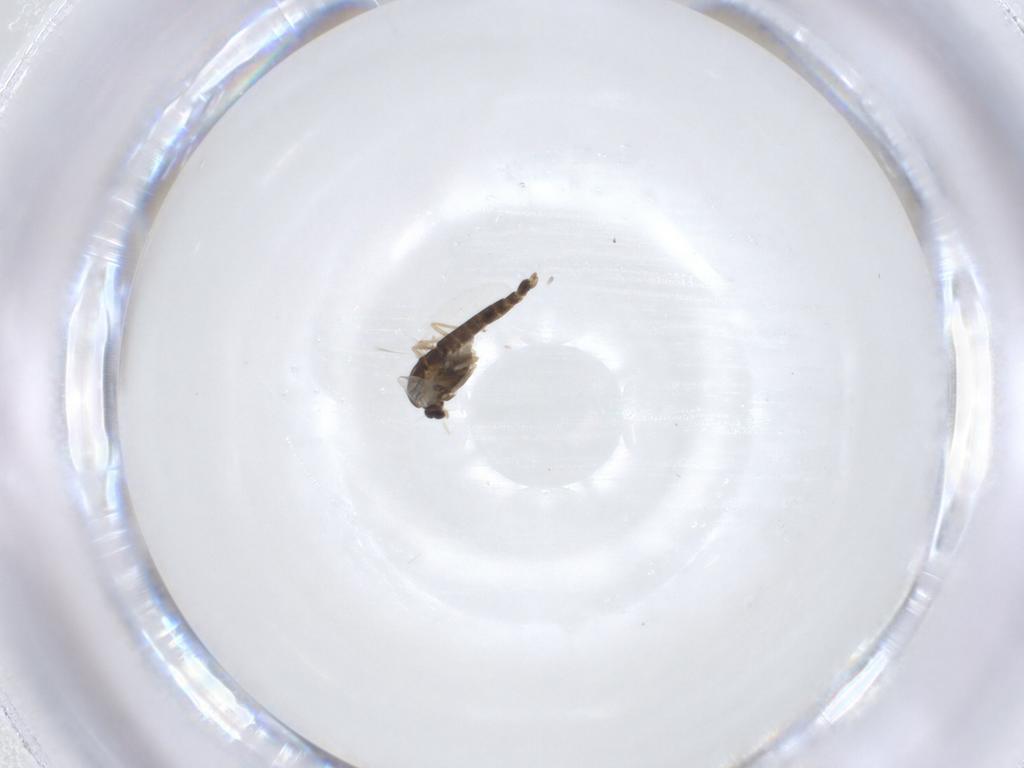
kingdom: Animalia
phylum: Arthropoda
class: Insecta
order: Diptera
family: Chironomidae
